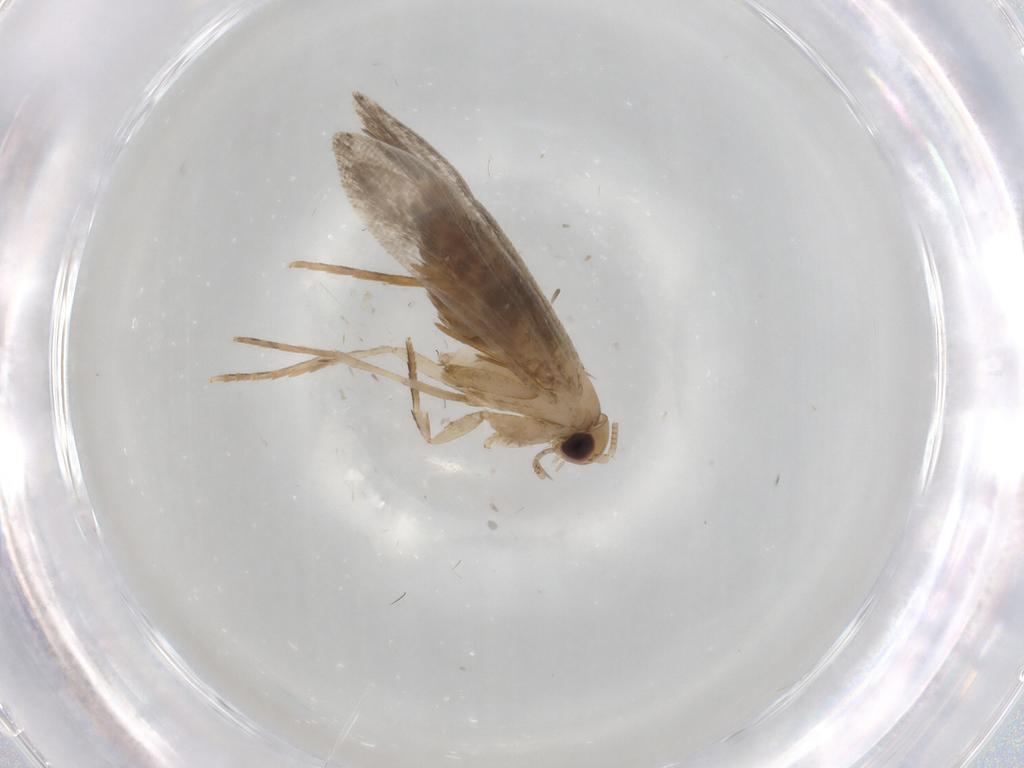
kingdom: Animalia
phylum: Arthropoda
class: Insecta
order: Lepidoptera
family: Tineidae
